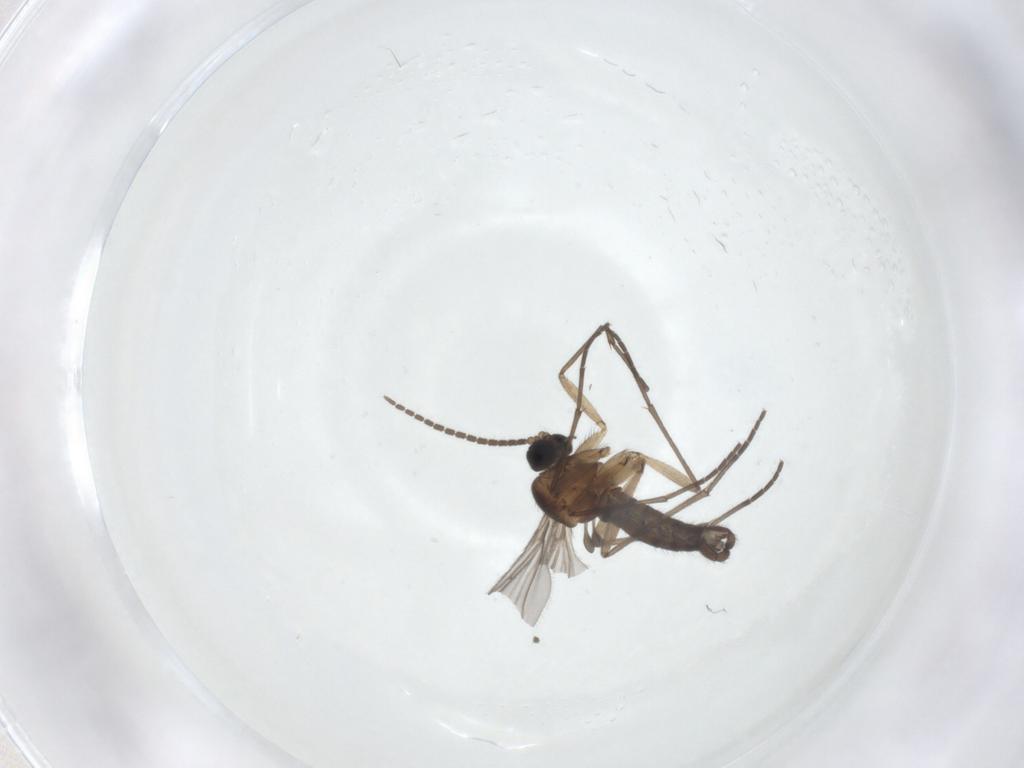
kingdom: Animalia
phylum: Arthropoda
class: Insecta
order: Diptera
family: Sciaridae
